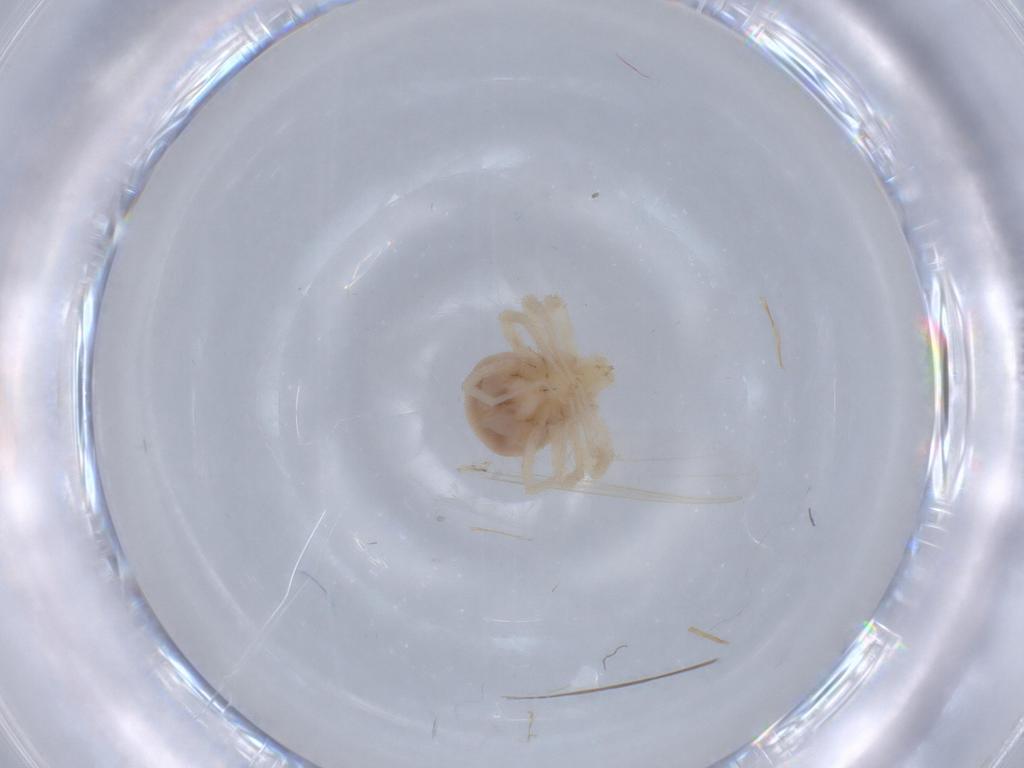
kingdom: Animalia
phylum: Arthropoda
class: Arachnida
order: Trombidiformes
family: Anystidae
